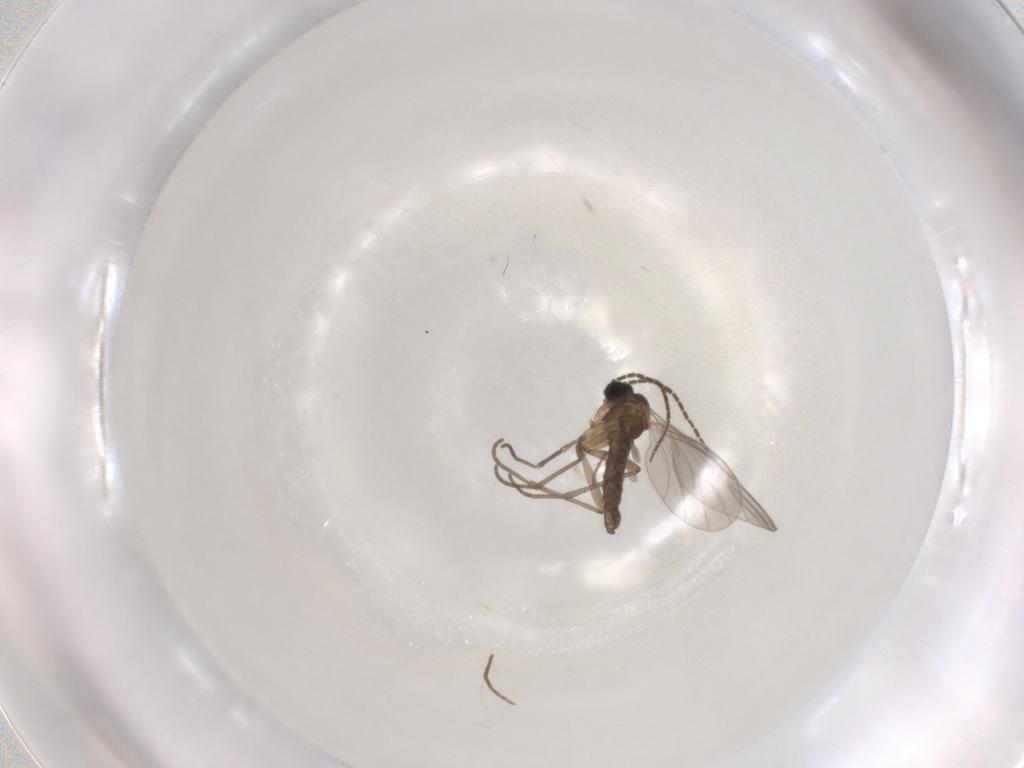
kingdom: Animalia
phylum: Arthropoda
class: Insecta
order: Diptera
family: Sciaridae
